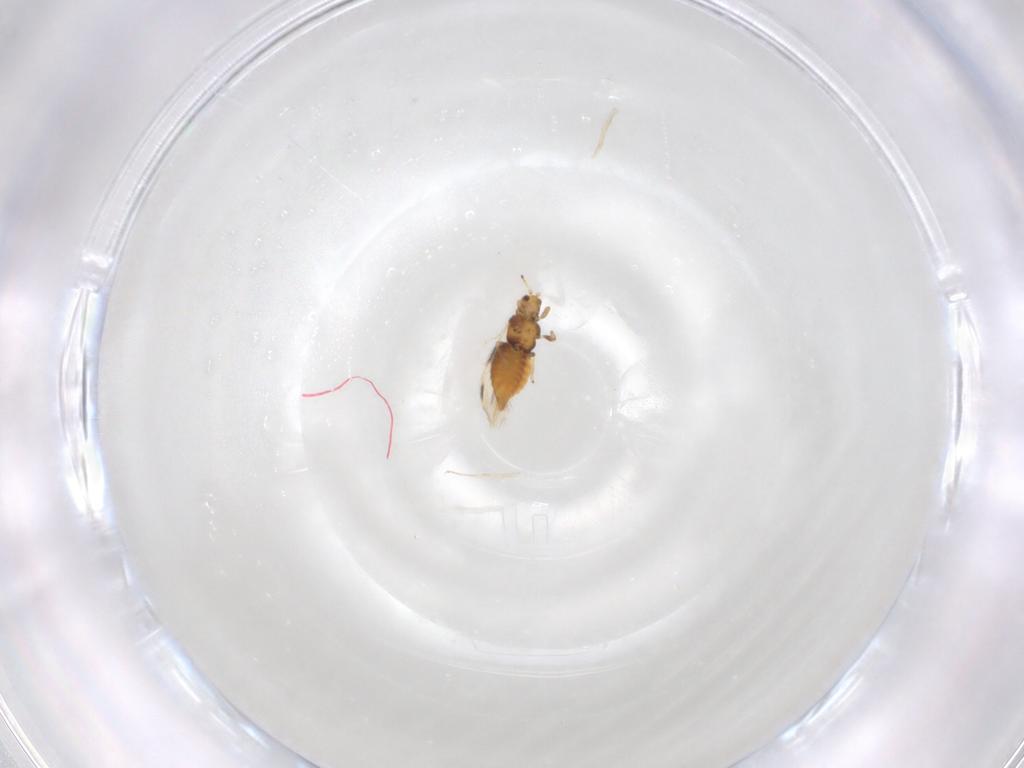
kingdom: Animalia
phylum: Arthropoda
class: Insecta
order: Thysanoptera
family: Thripidae
